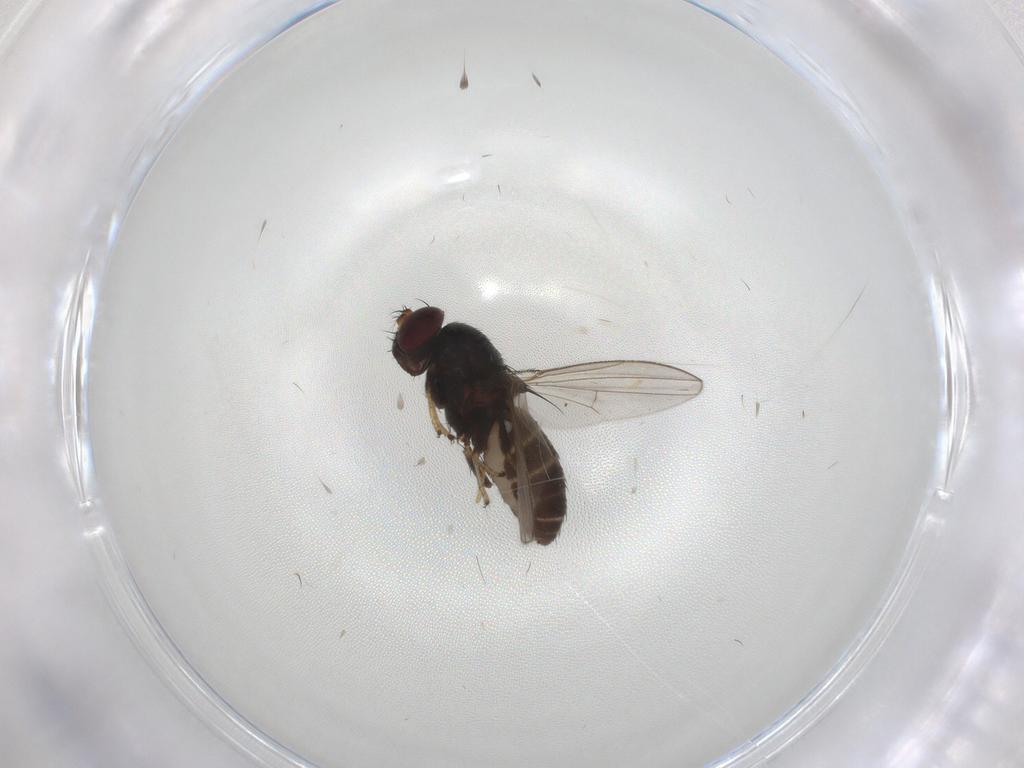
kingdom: Animalia
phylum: Arthropoda
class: Insecta
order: Diptera
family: Ephydridae
